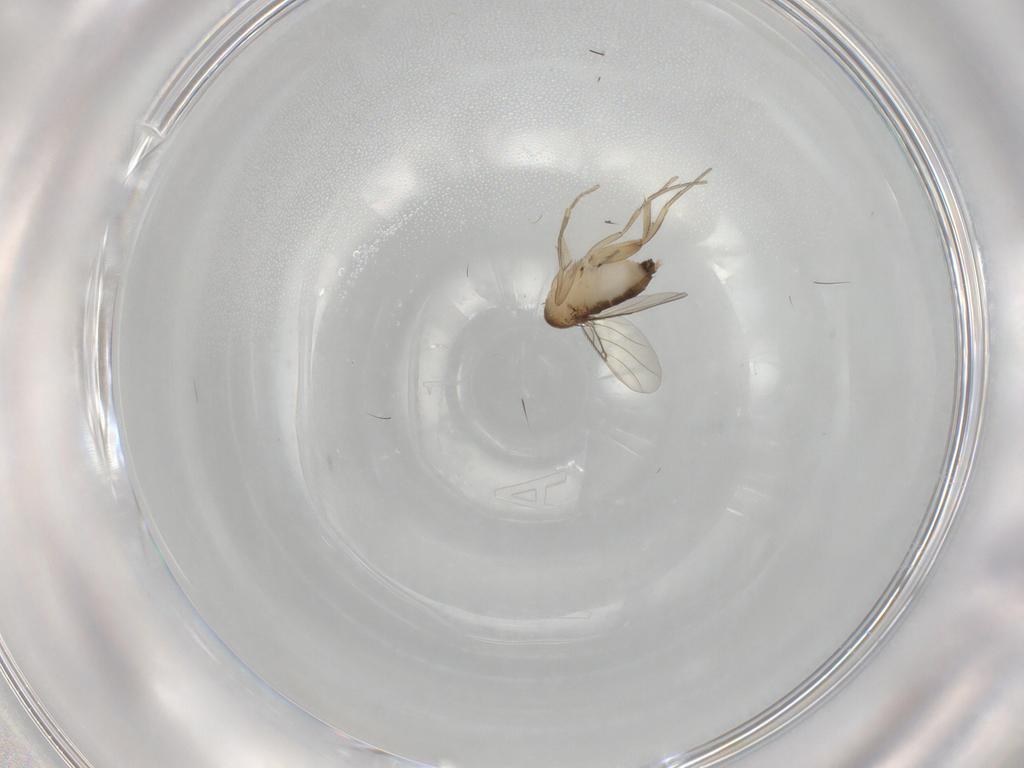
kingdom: Animalia
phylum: Arthropoda
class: Insecta
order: Diptera
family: Phoridae
